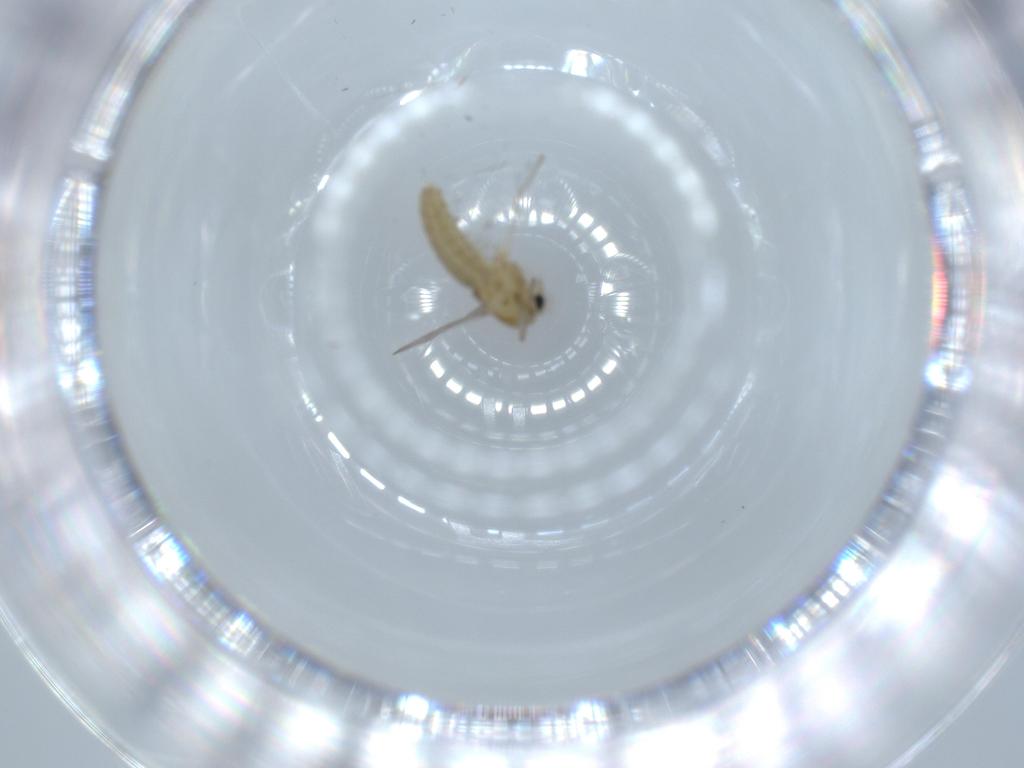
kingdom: Animalia
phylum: Arthropoda
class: Insecta
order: Diptera
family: Chironomidae
